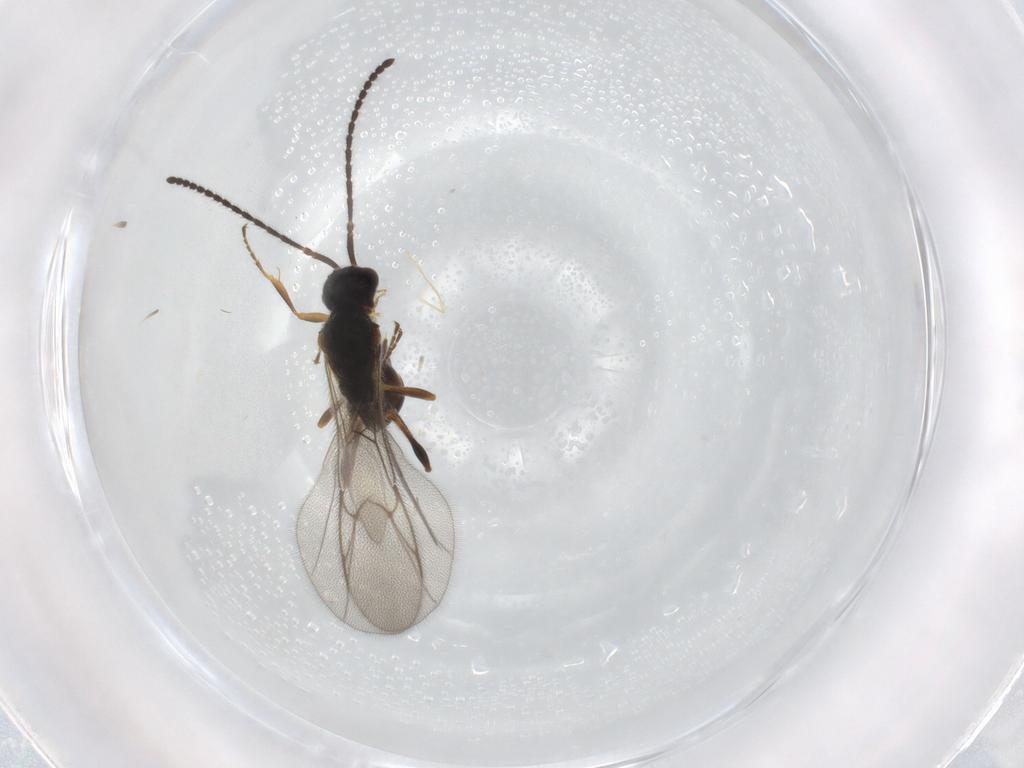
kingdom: Animalia
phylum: Arthropoda
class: Insecta
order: Hymenoptera
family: Diapriidae
